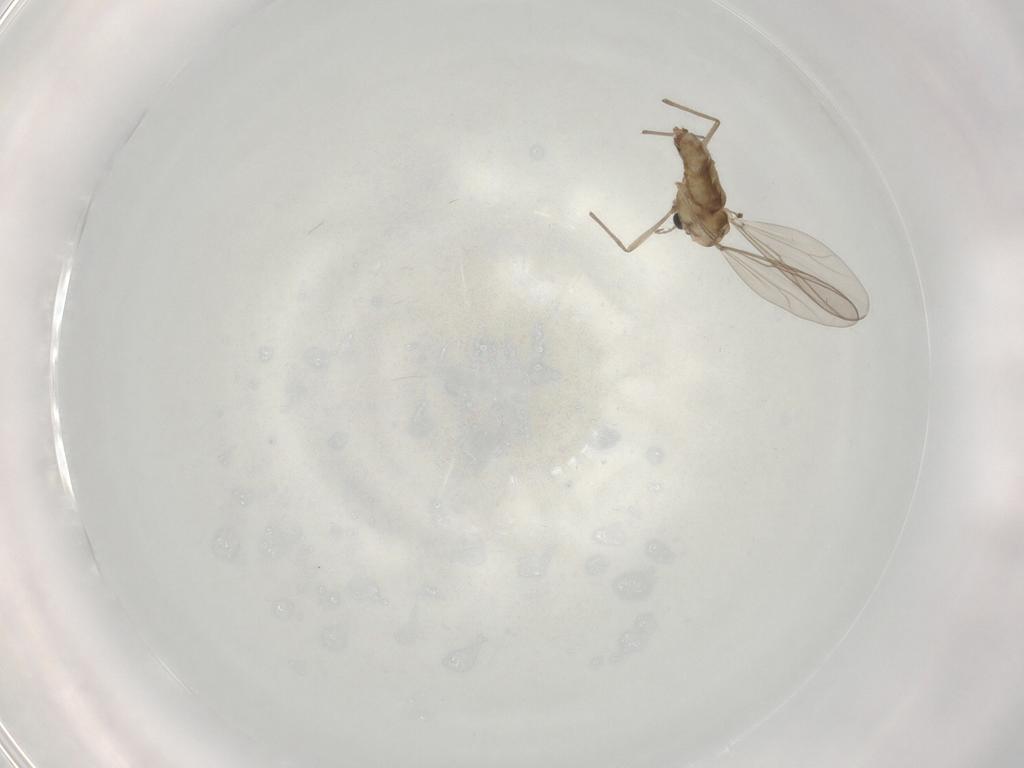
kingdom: Animalia
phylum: Arthropoda
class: Insecta
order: Diptera
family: Chironomidae
